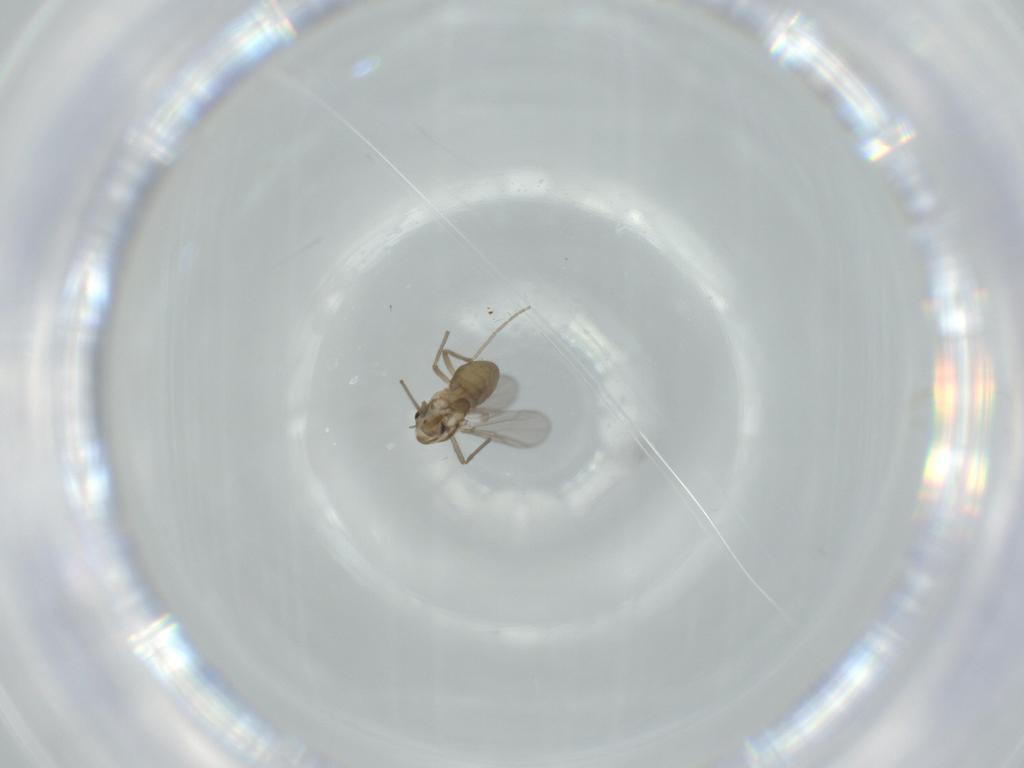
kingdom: Animalia
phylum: Arthropoda
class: Insecta
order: Diptera
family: Chironomidae
